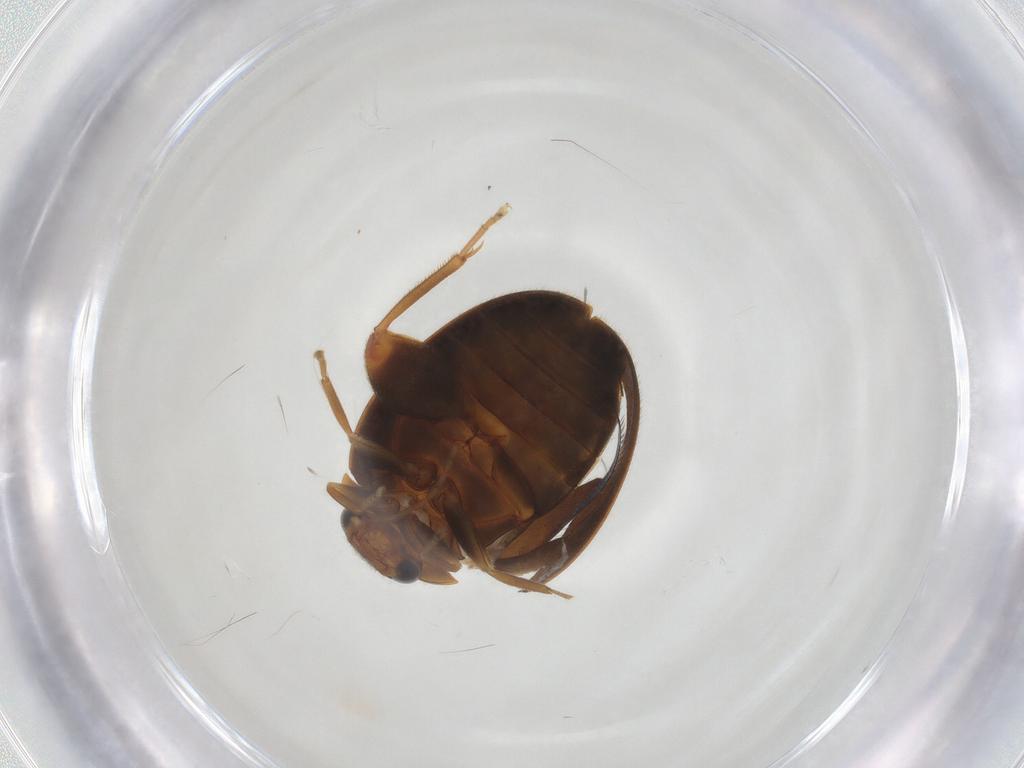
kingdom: Animalia
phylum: Arthropoda
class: Insecta
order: Coleoptera
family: Scirtidae
